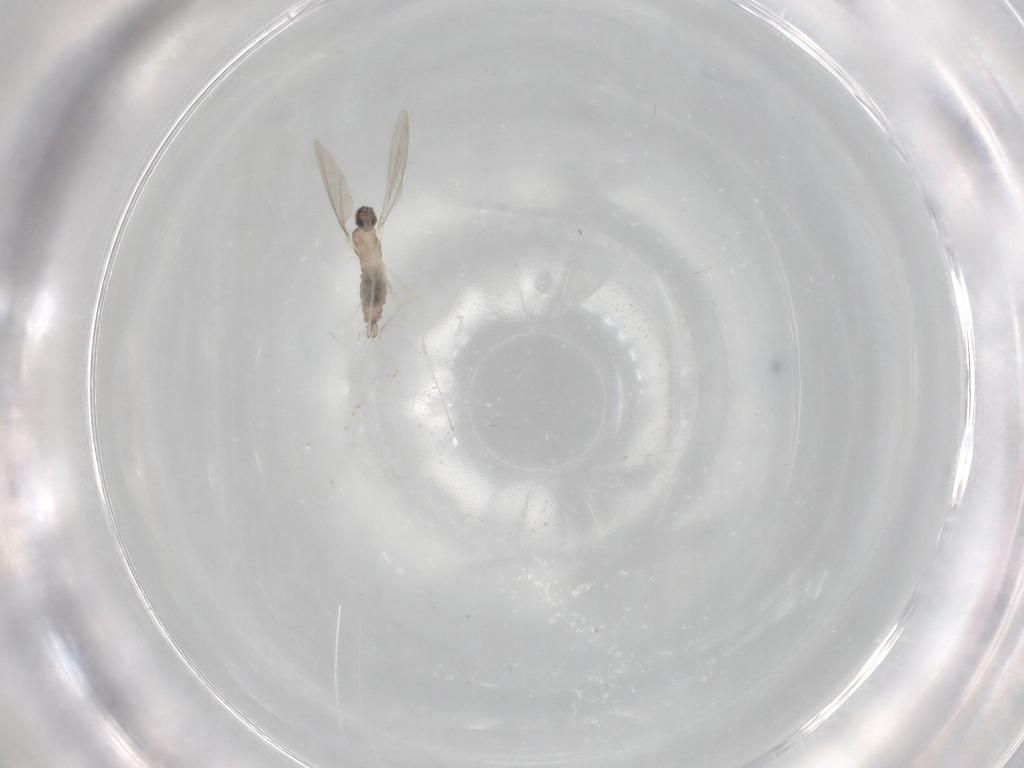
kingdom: Animalia
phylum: Arthropoda
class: Insecta
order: Diptera
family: Cecidomyiidae
